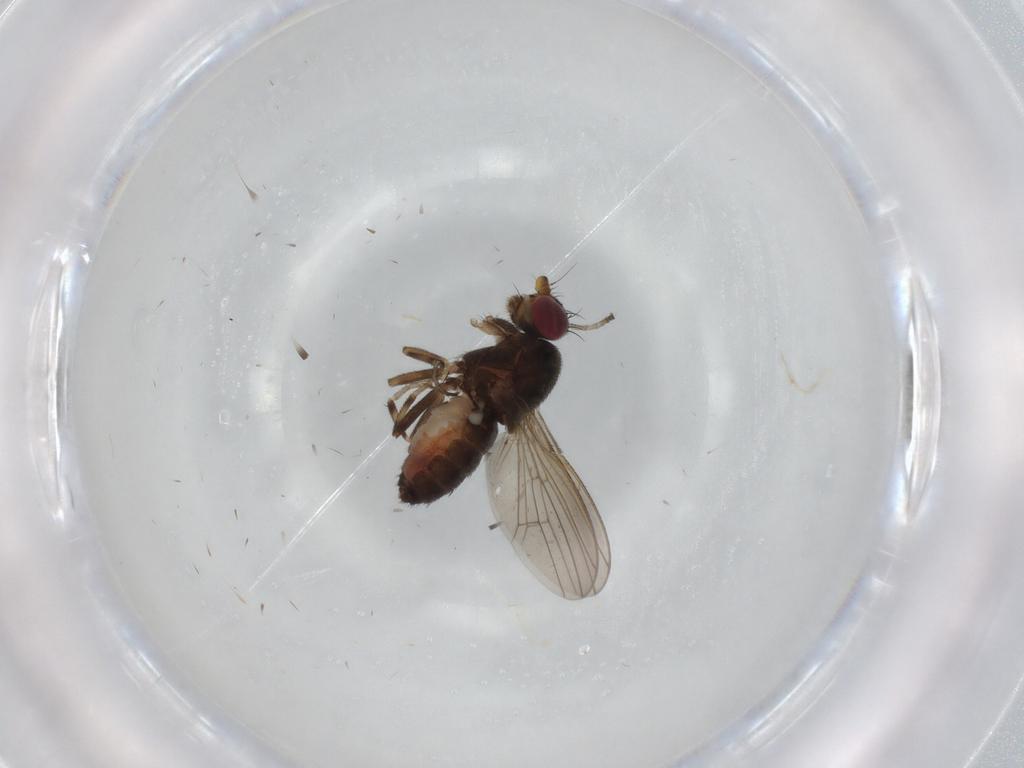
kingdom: Animalia
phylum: Arthropoda
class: Insecta
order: Diptera
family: Heleomyzidae
